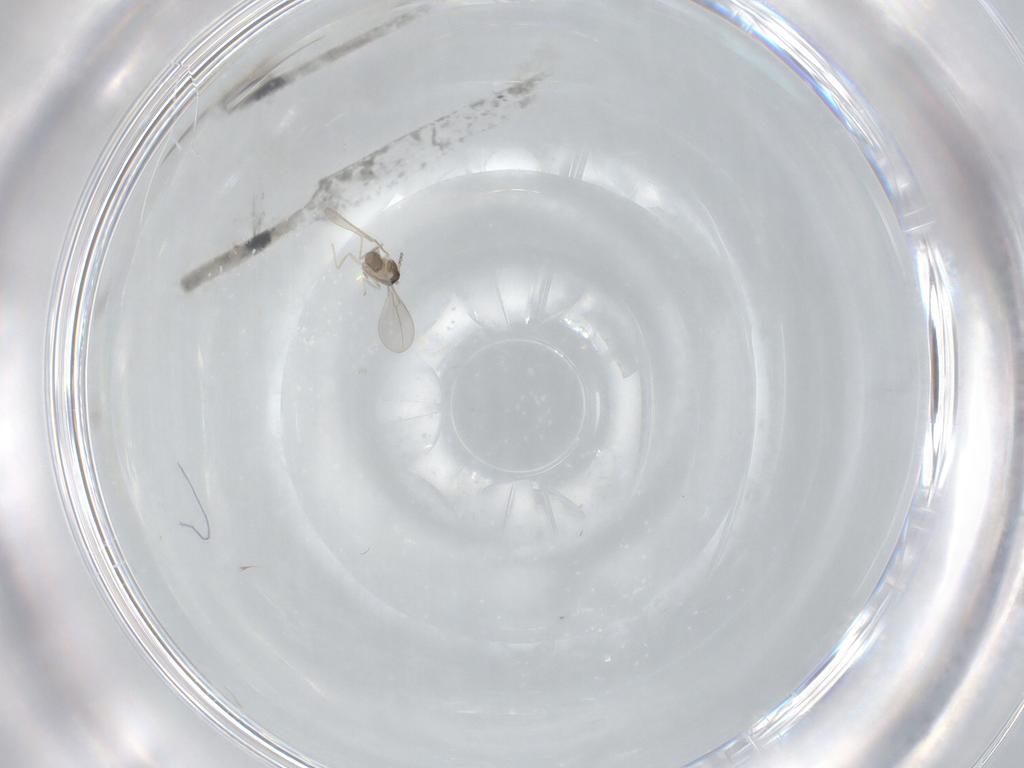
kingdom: Animalia
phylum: Arthropoda
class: Insecta
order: Diptera
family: Cecidomyiidae
